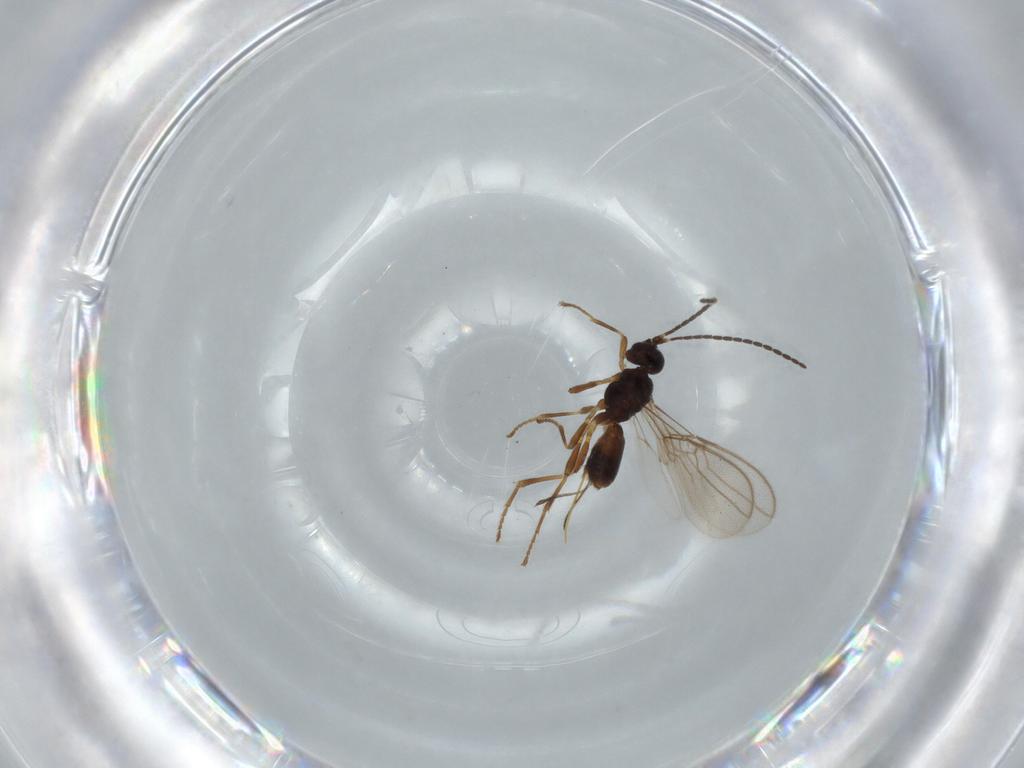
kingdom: Animalia
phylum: Arthropoda
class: Insecta
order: Hymenoptera
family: Braconidae
